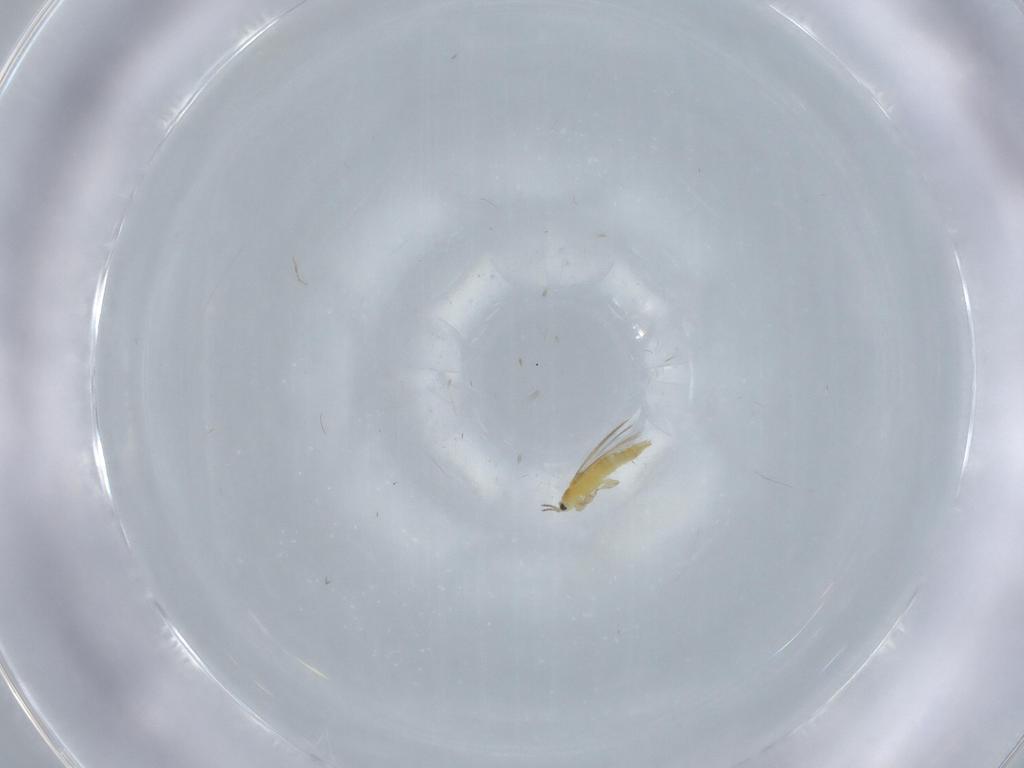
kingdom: Animalia
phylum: Arthropoda
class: Insecta
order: Thysanoptera
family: Thripidae
